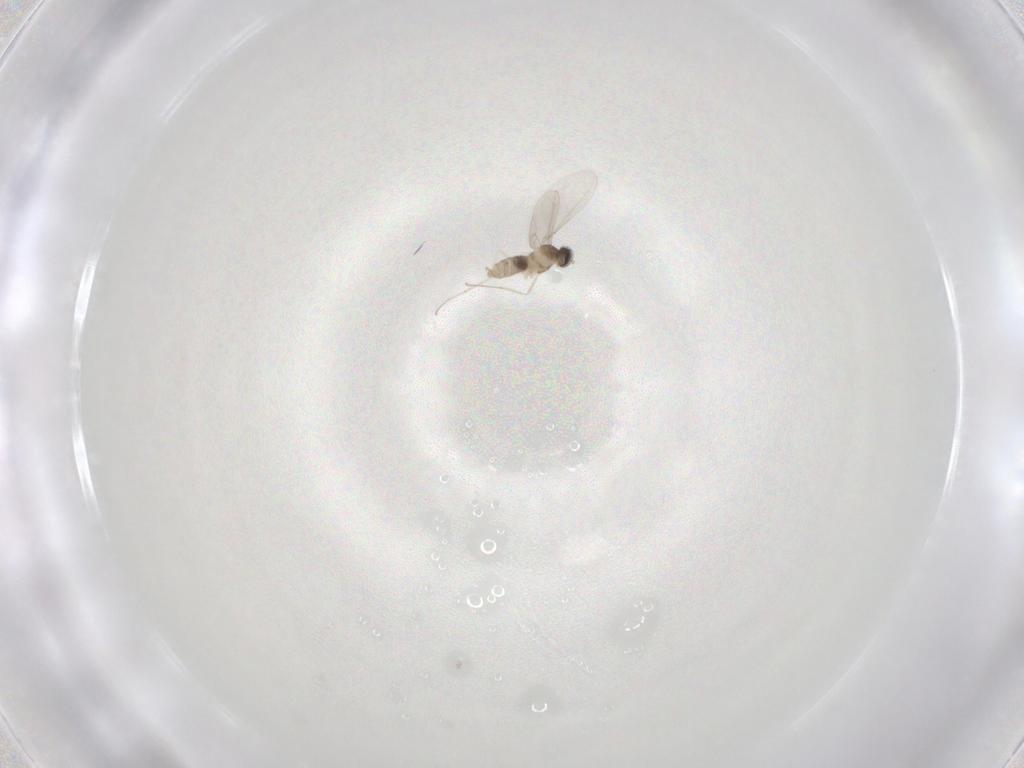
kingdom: Animalia
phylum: Arthropoda
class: Insecta
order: Diptera
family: Cecidomyiidae
